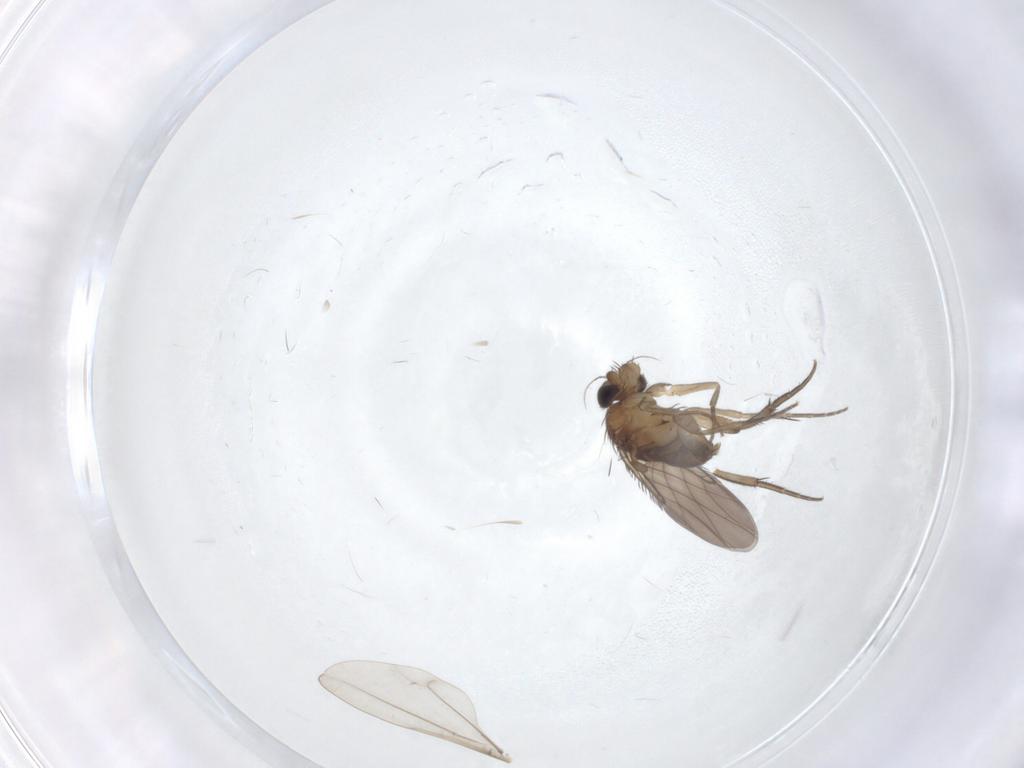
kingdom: Animalia
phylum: Arthropoda
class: Insecta
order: Diptera
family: Phoridae
